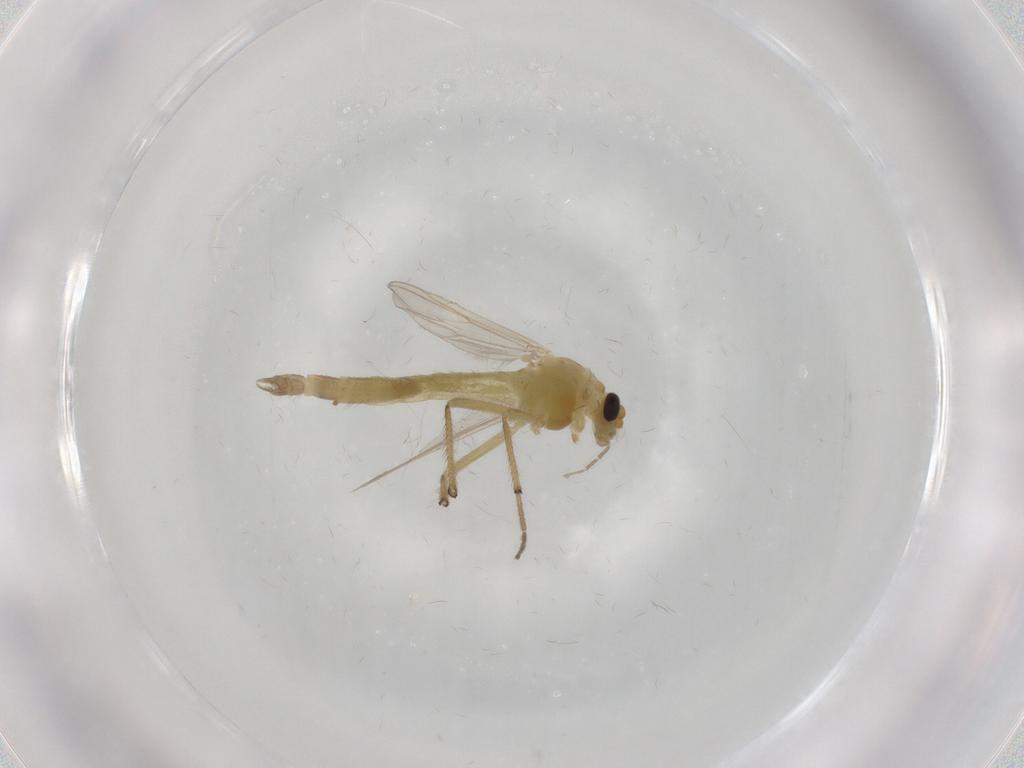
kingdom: Animalia
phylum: Arthropoda
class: Insecta
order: Diptera
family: Chironomidae
